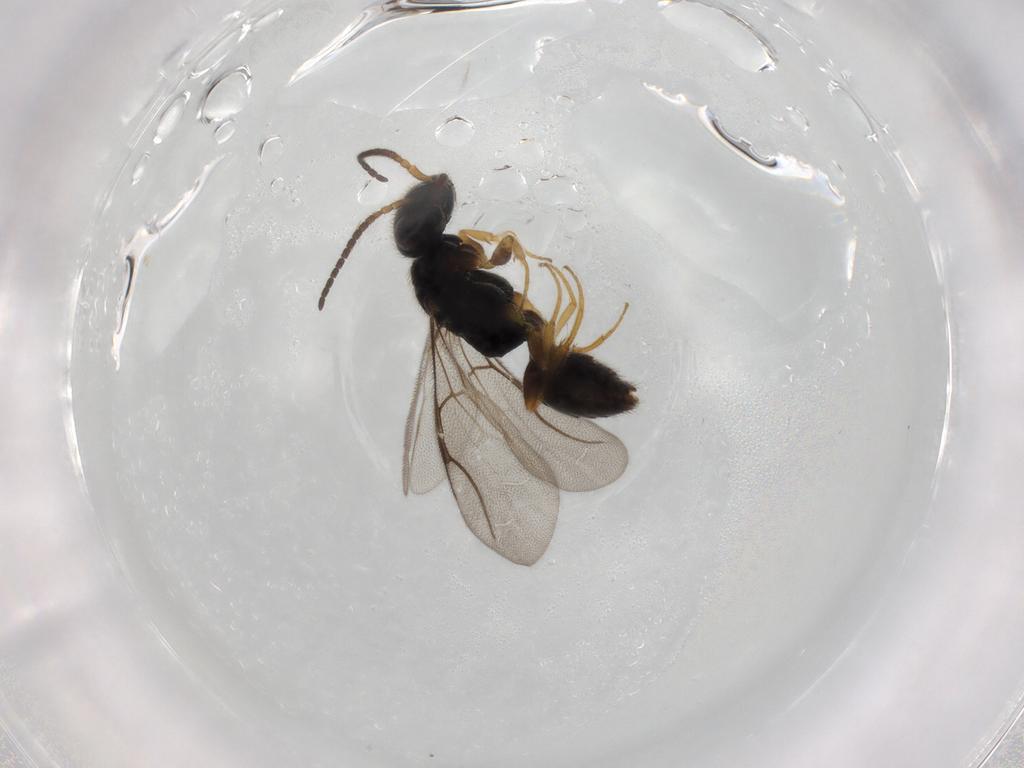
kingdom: Animalia
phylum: Arthropoda
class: Insecta
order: Hymenoptera
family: Bethylidae
